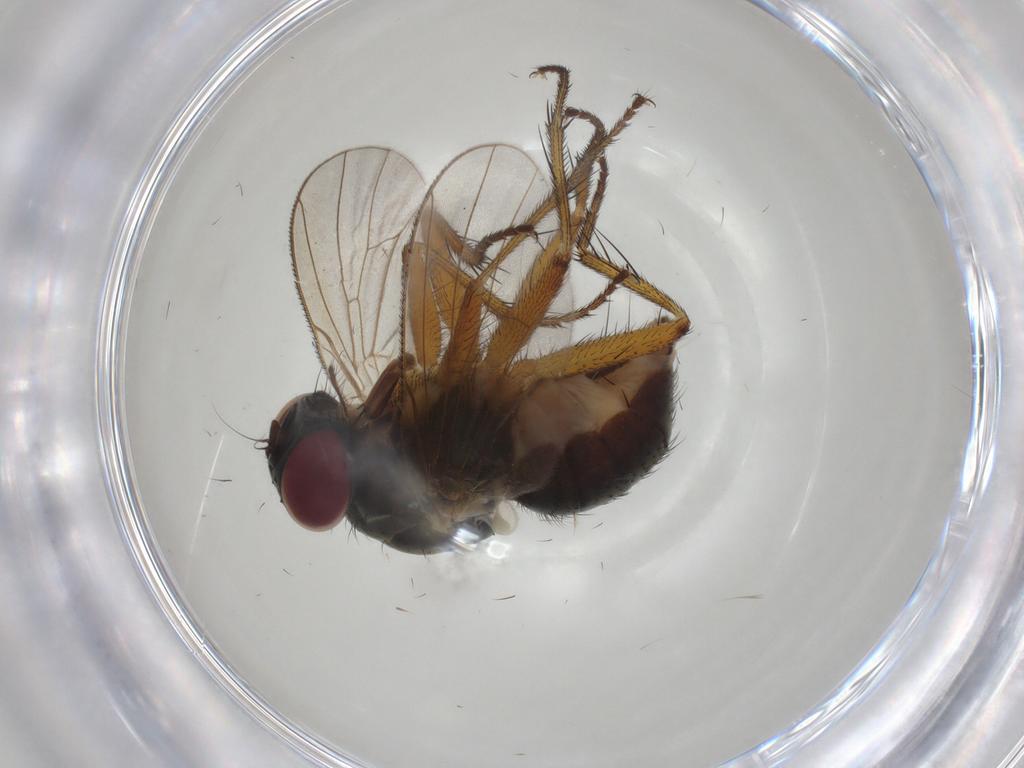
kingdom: Animalia
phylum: Arthropoda
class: Insecta
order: Diptera
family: Muscidae
